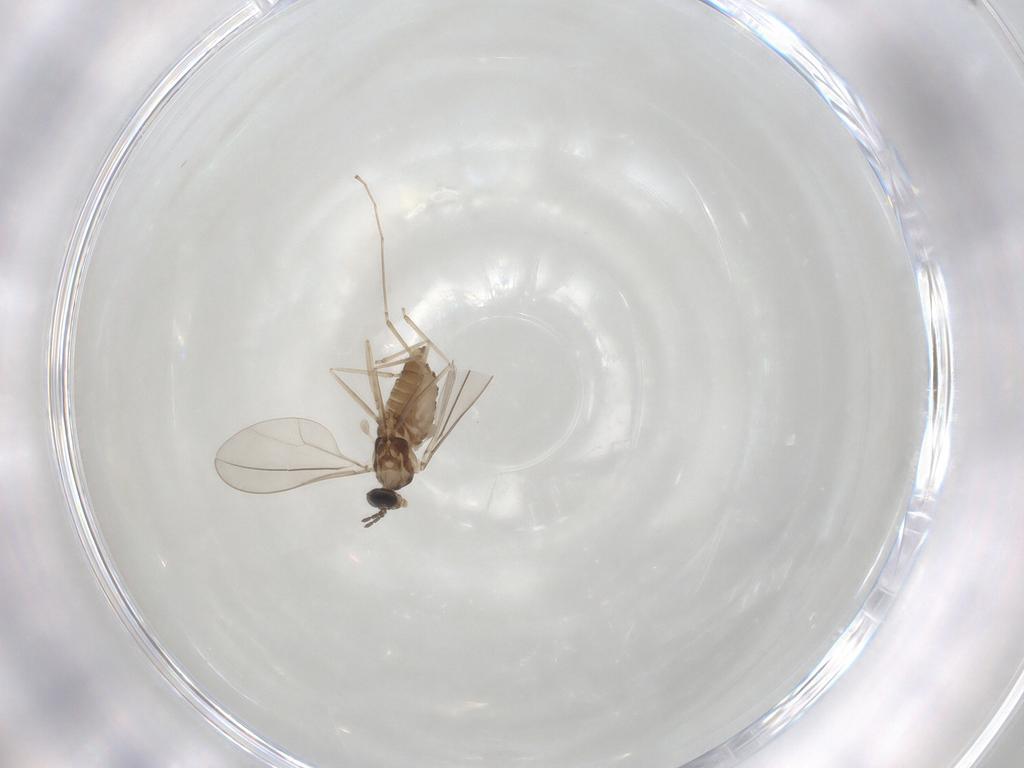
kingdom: Animalia
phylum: Arthropoda
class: Insecta
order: Diptera
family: Cecidomyiidae
